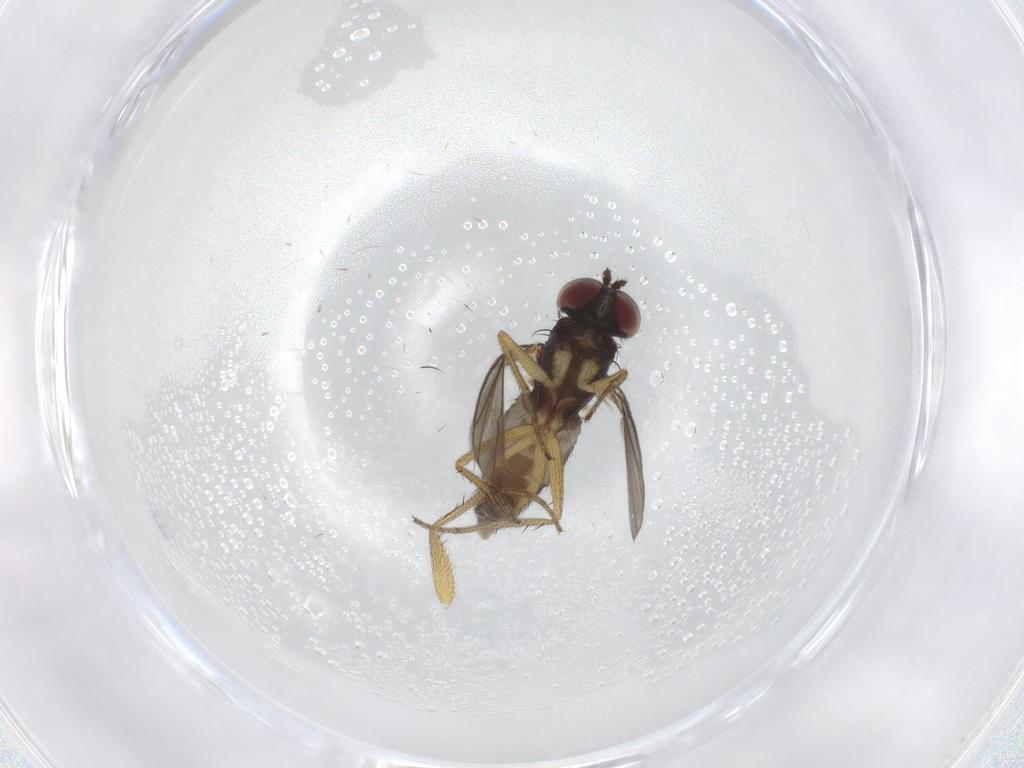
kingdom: Animalia
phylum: Arthropoda
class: Insecta
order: Diptera
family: Dolichopodidae
